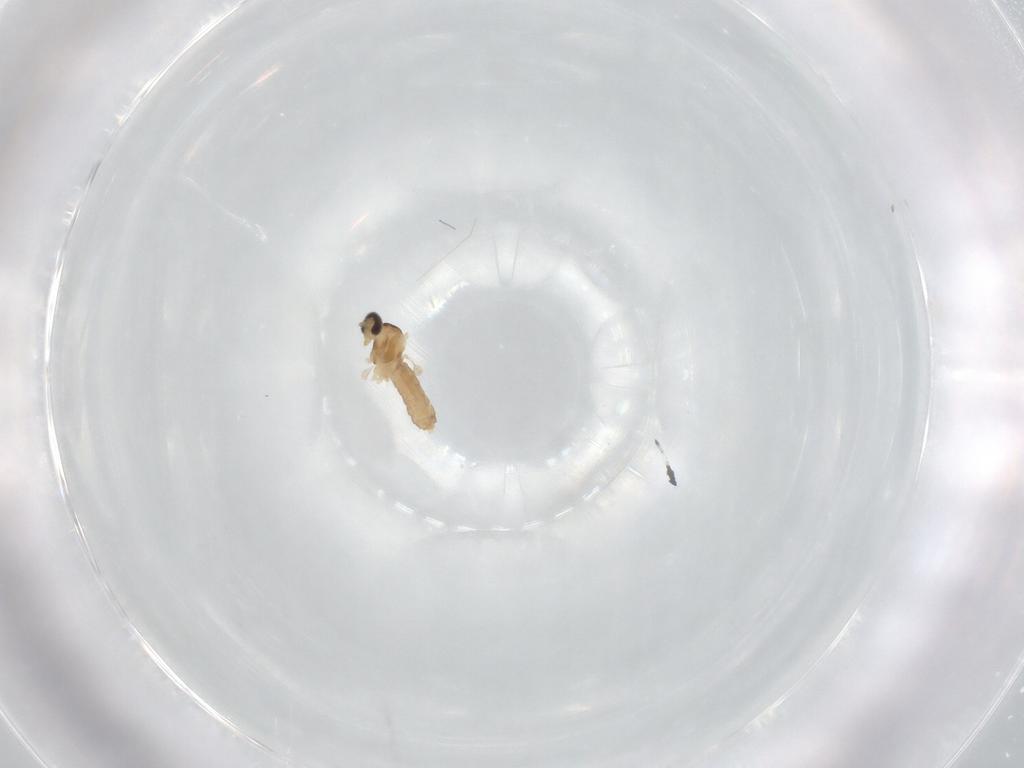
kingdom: Animalia
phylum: Arthropoda
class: Insecta
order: Diptera
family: Cecidomyiidae
